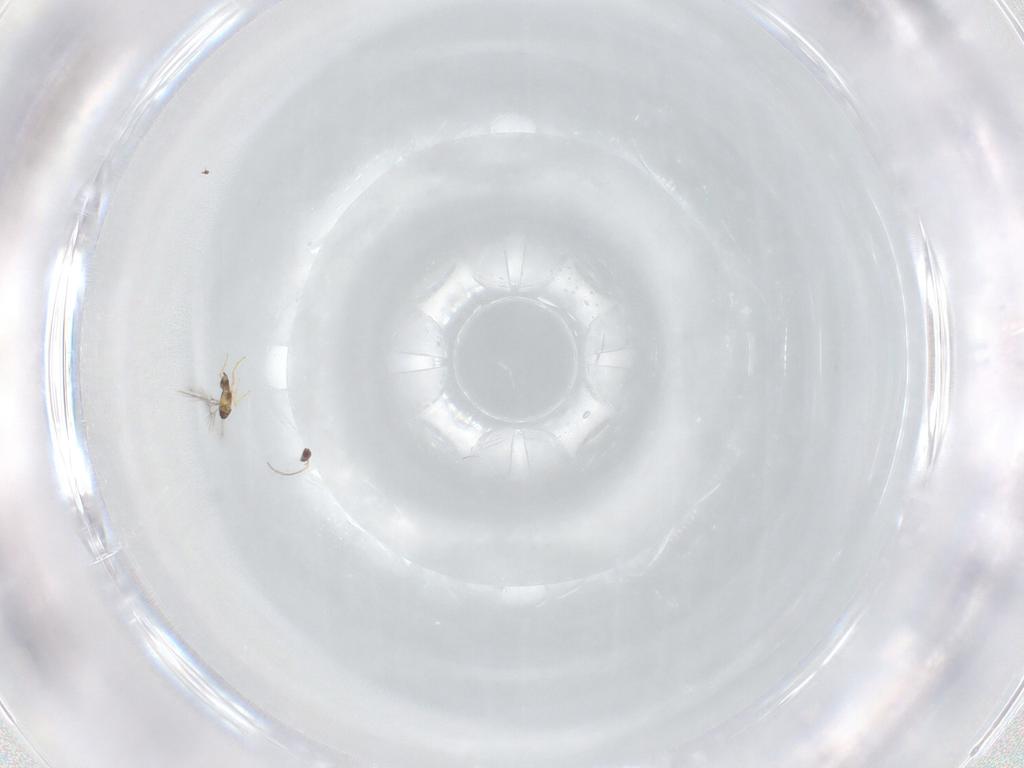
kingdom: Animalia
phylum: Arthropoda
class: Insecta
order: Hymenoptera
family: Mymaridae
